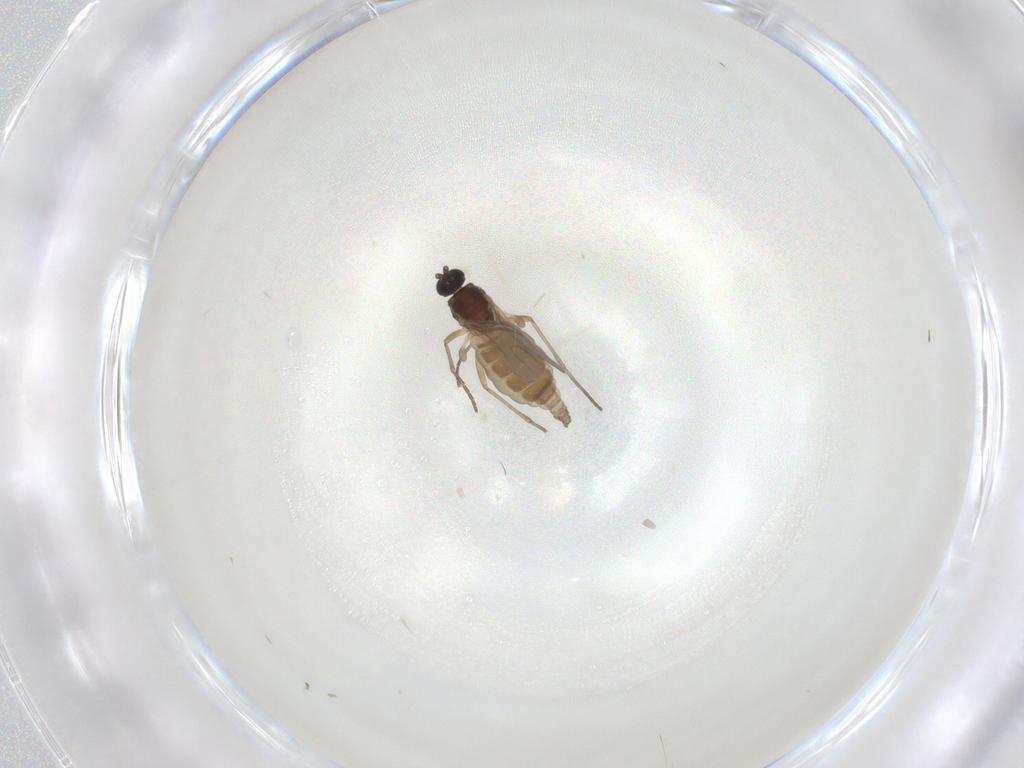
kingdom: Animalia
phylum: Arthropoda
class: Insecta
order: Diptera
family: Sciaridae
